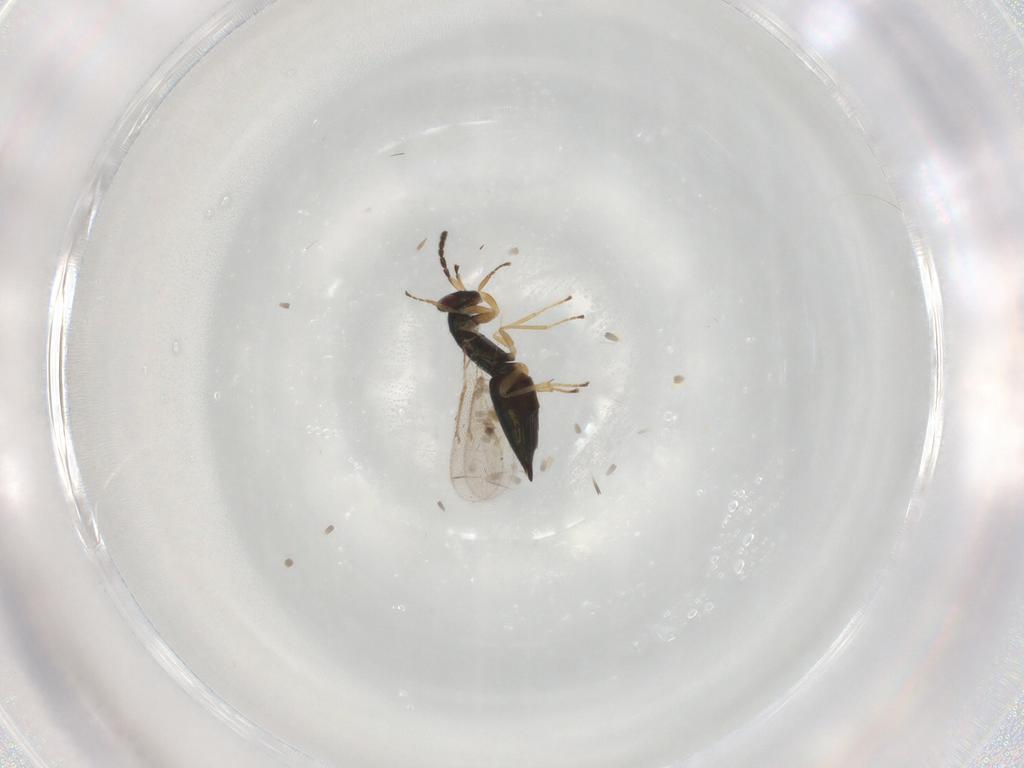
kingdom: Animalia
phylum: Arthropoda
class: Insecta
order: Hymenoptera
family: Eulophidae
